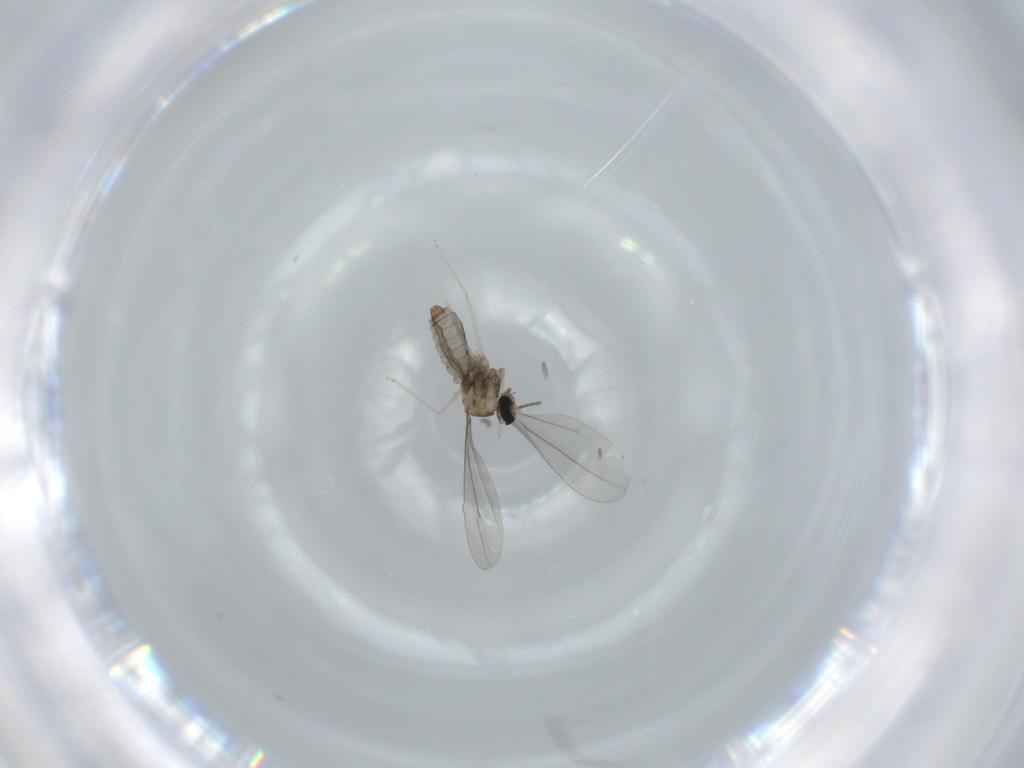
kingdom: Animalia
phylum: Arthropoda
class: Insecta
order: Diptera
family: Cecidomyiidae
